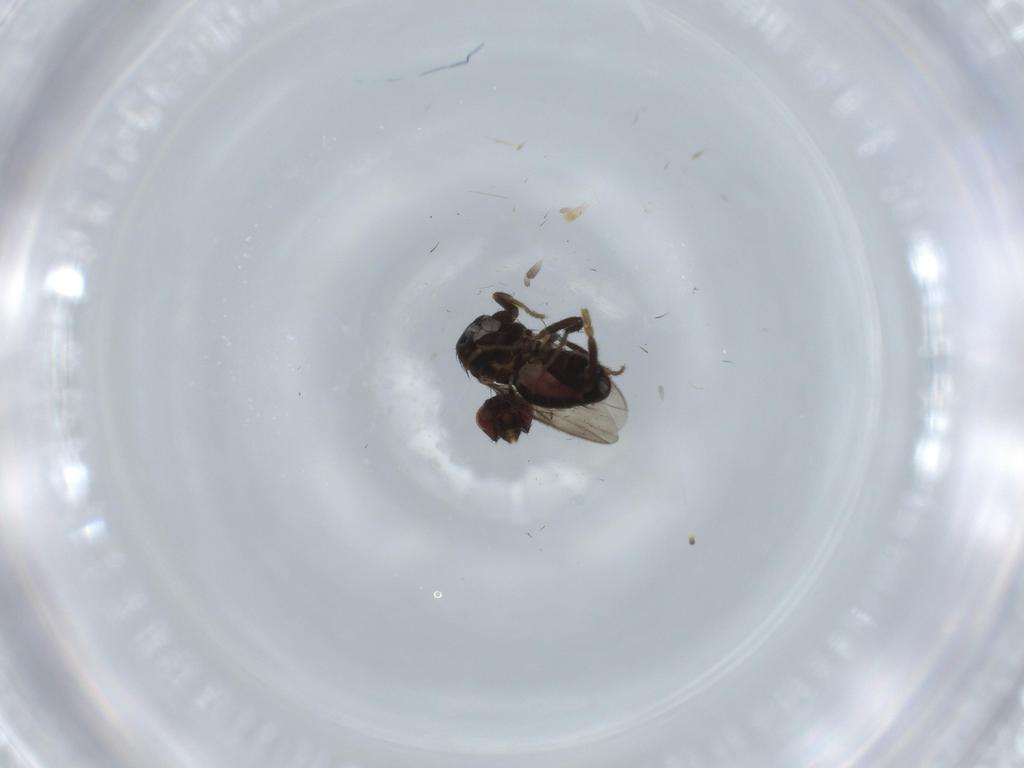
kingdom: Animalia
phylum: Arthropoda
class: Insecta
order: Diptera
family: Sphaeroceridae
